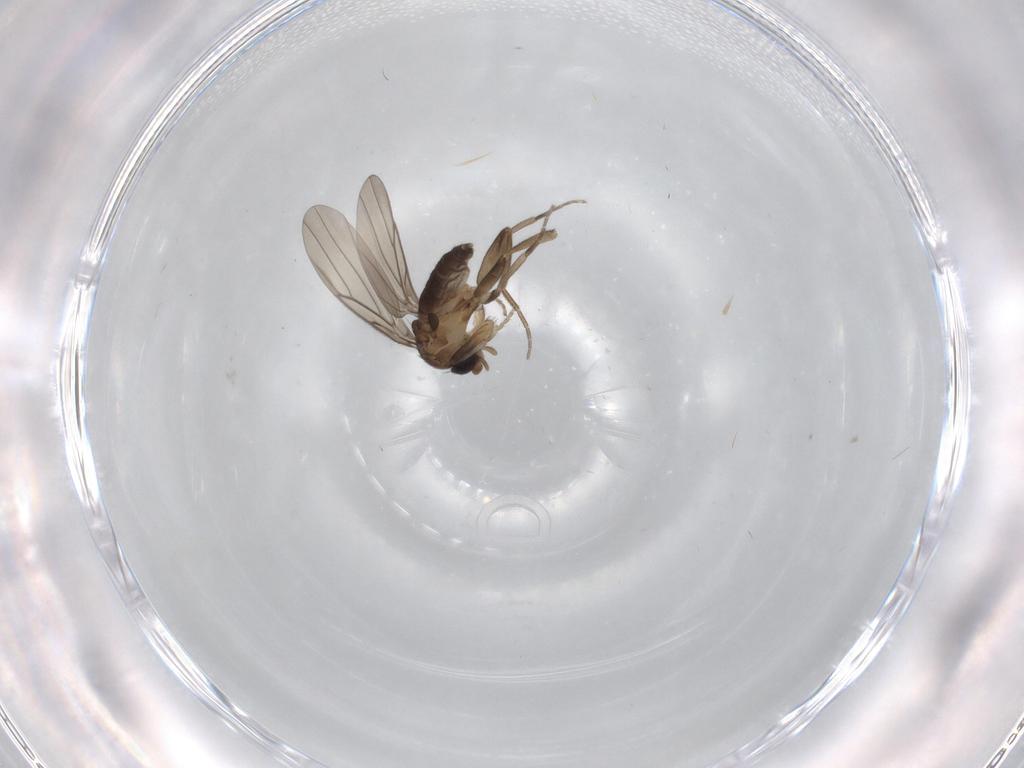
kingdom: Animalia
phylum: Arthropoda
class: Insecta
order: Diptera
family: Phoridae
